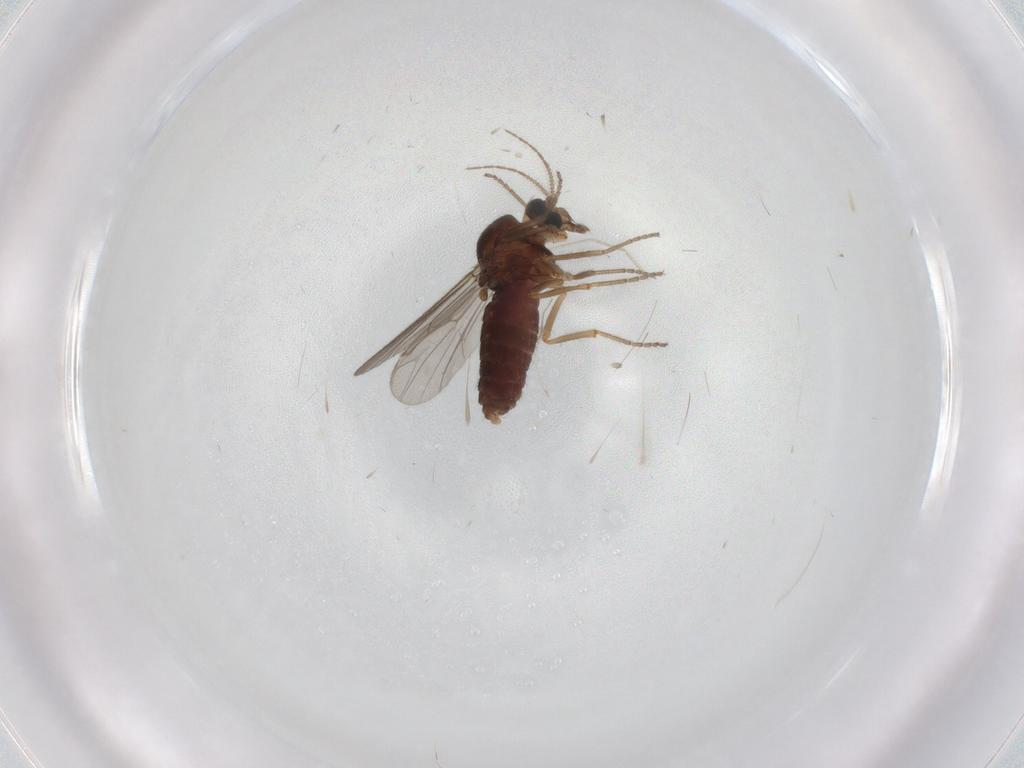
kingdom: Animalia
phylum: Arthropoda
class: Insecta
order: Diptera
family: Ceratopogonidae
